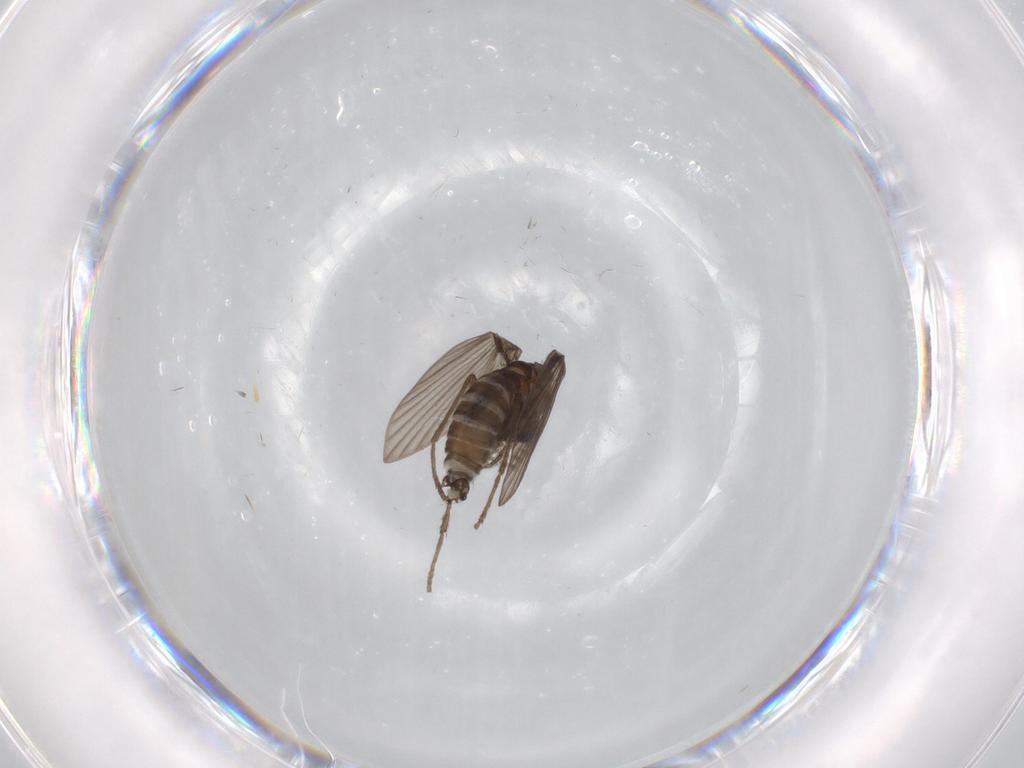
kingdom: Animalia
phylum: Arthropoda
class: Insecta
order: Diptera
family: Psychodidae
